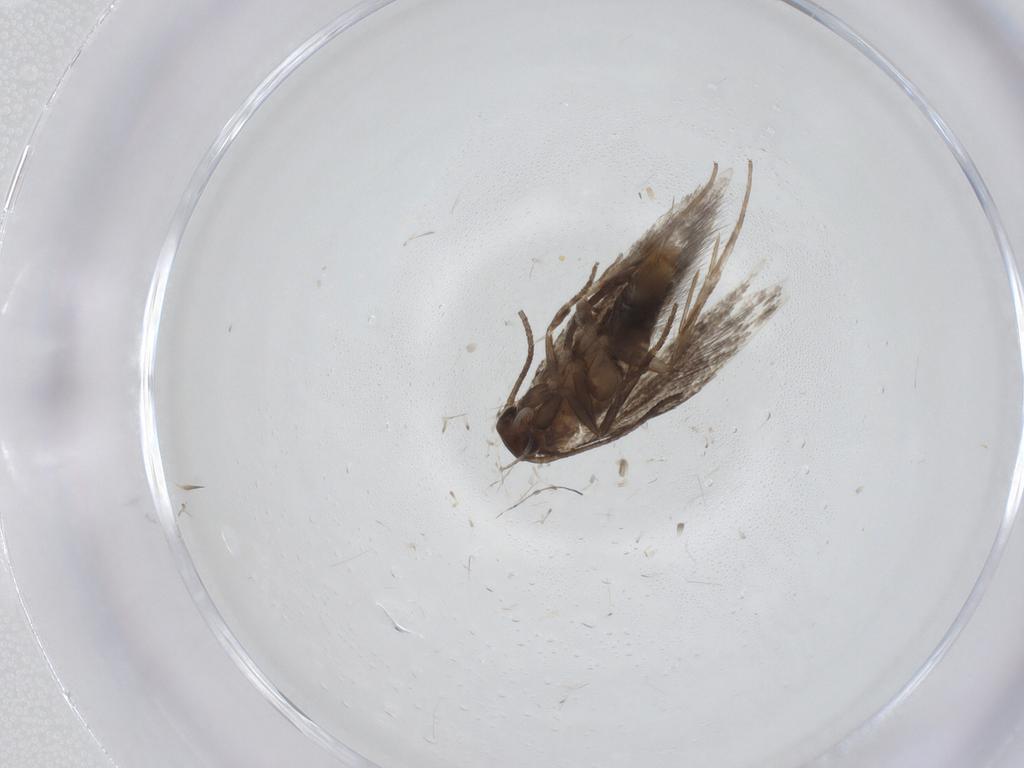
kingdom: Animalia
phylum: Arthropoda
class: Insecta
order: Lepidoptera
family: Elachistidae
